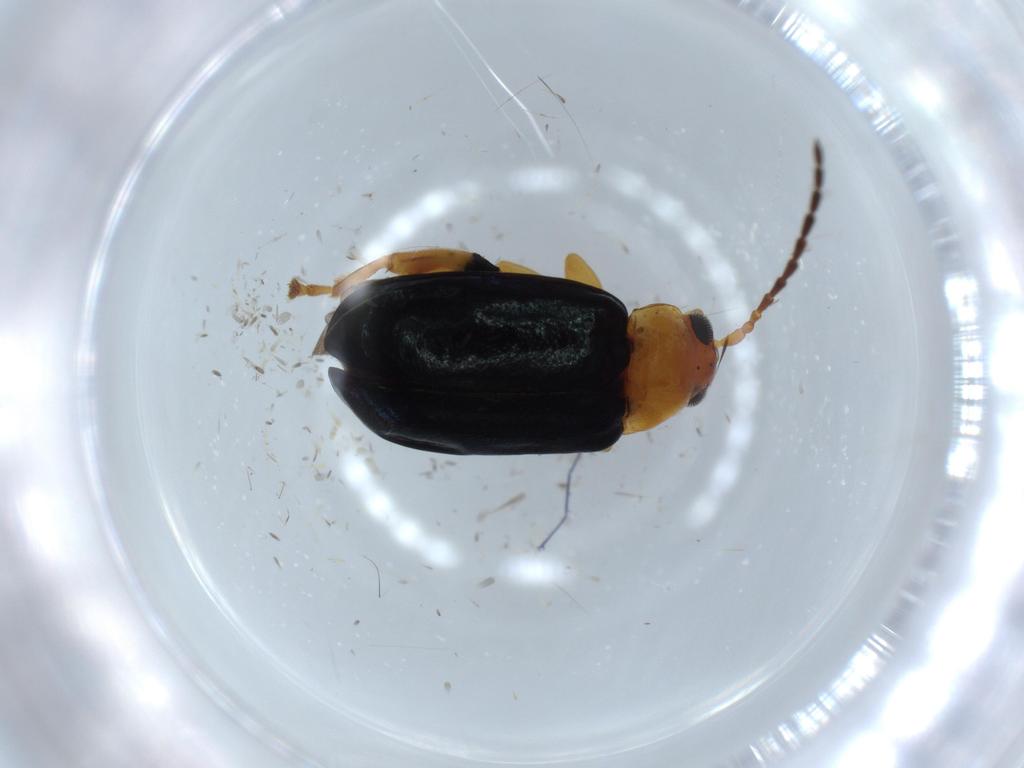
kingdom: Animalia
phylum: Arthropoda
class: Insecta
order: Coleoptera
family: Chrysomelidae
